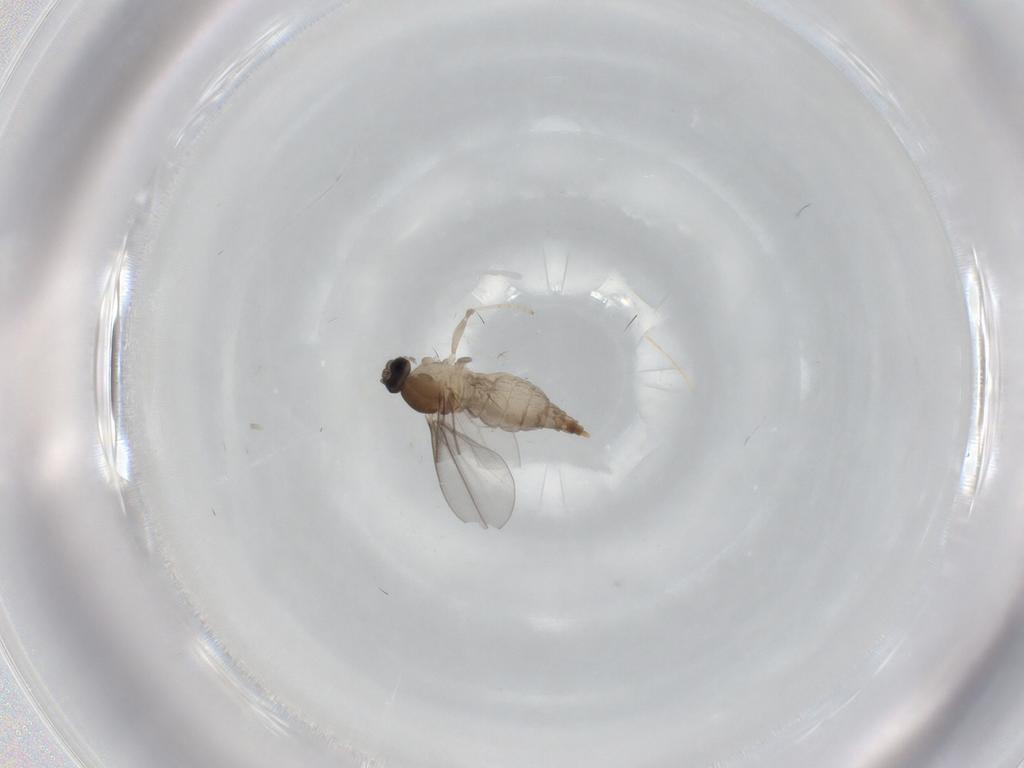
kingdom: Animalia
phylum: Arthropoda
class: Insecta
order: Diptera
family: Cecidomyiidae
